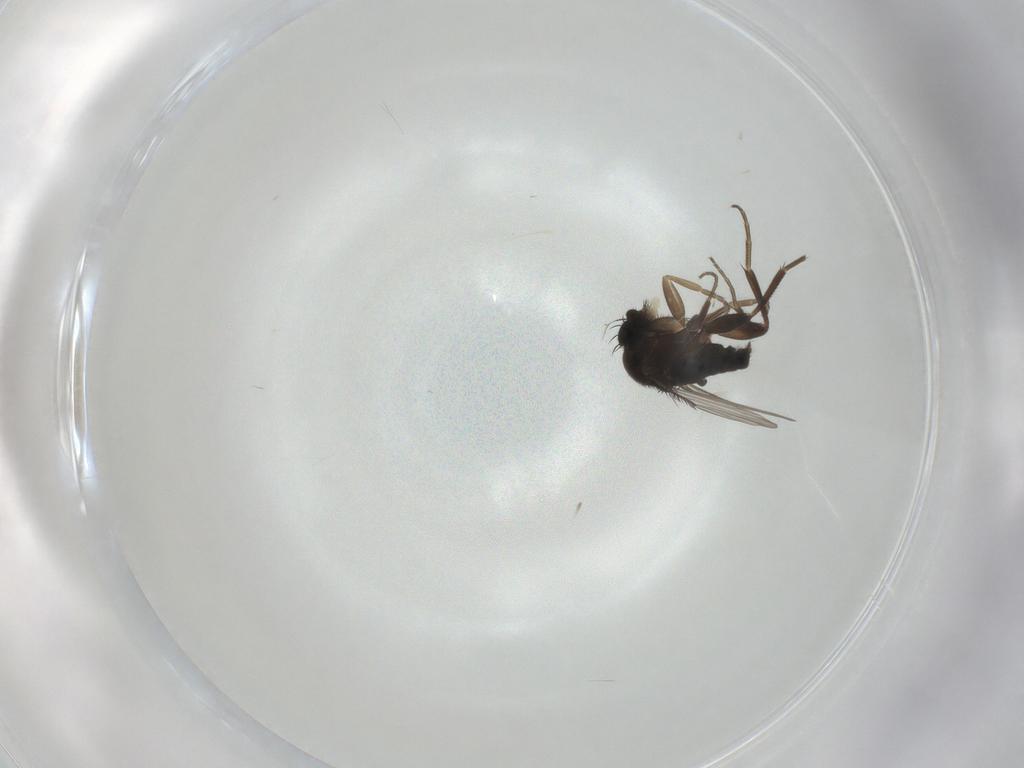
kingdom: Animalia
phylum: Arthropoda
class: Insecta
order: Diptera
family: Phoridae
